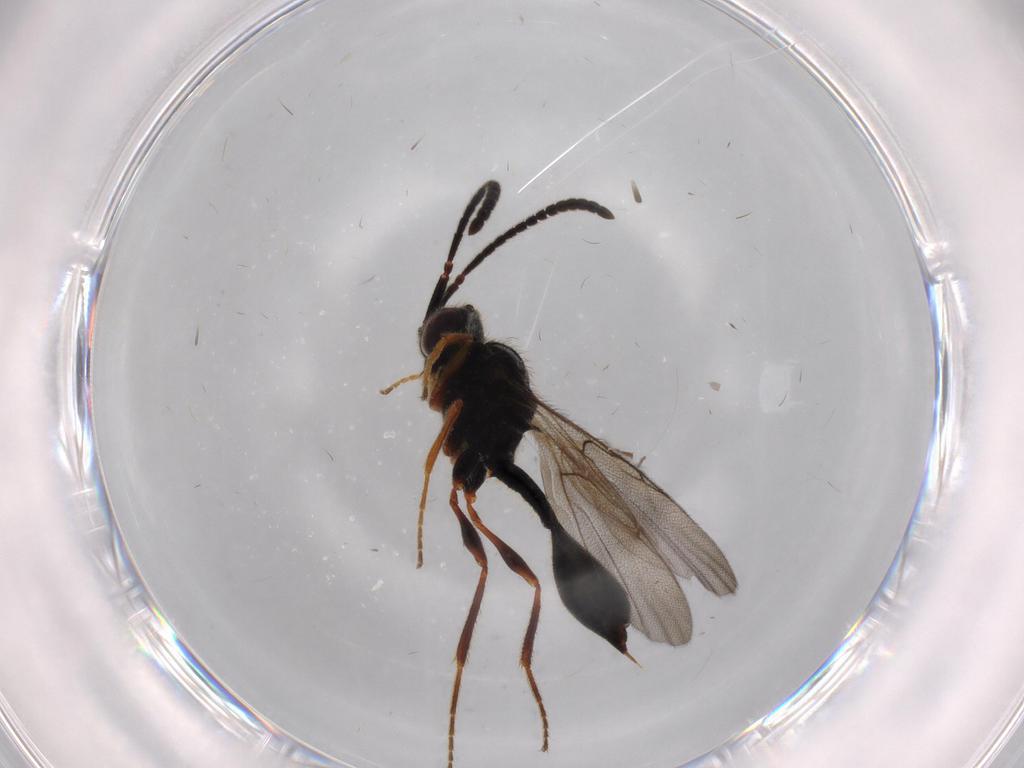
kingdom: Animalia
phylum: Arthropoda
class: Insecta
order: Hymenoptera
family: Diapriidae
